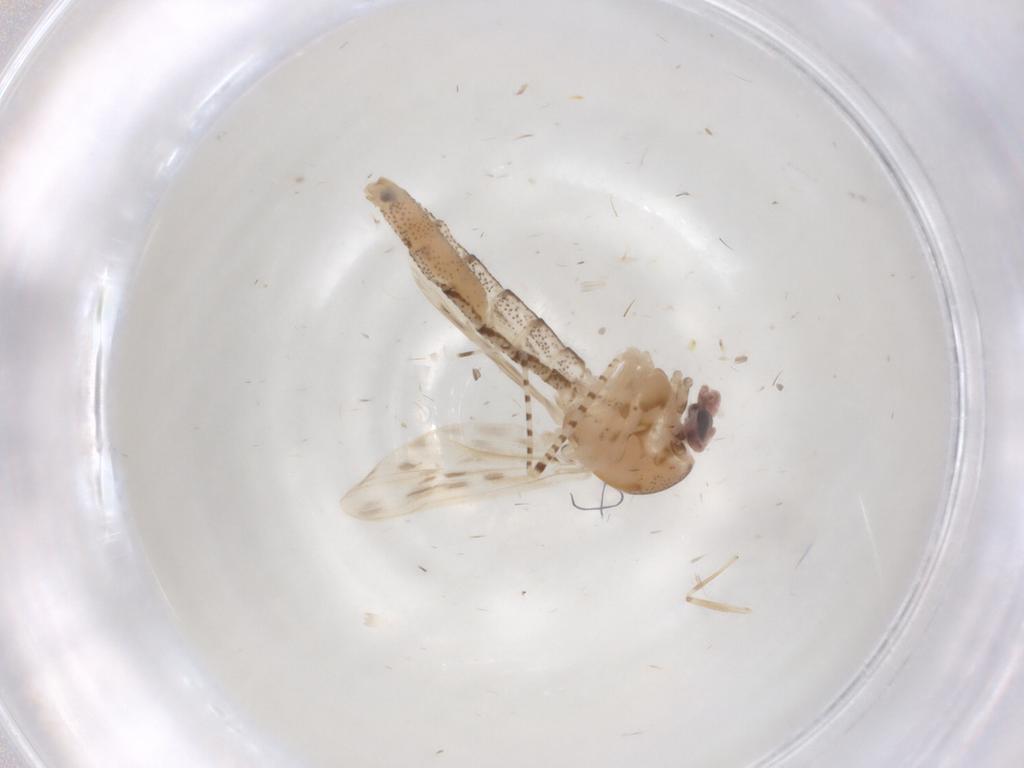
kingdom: Animalia
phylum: Arthropoda
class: Insecta
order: Diptera
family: Chaoboridae
